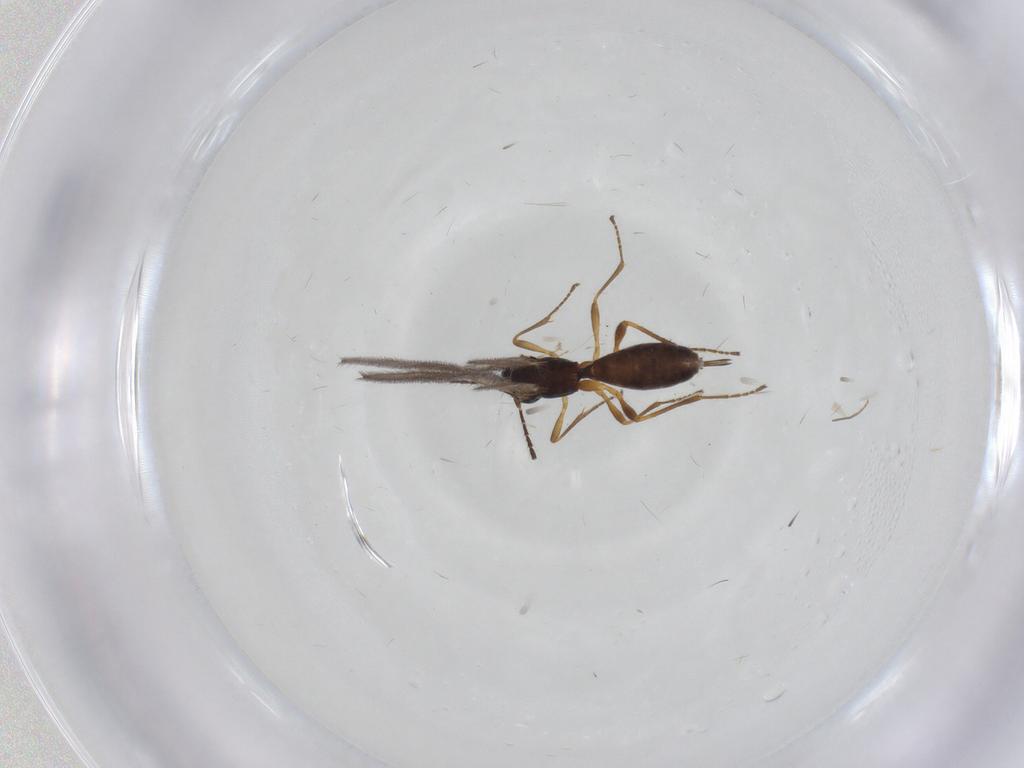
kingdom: Animalia
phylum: Arthropoda
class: Insecta
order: Hymenoptera
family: Braconidae
